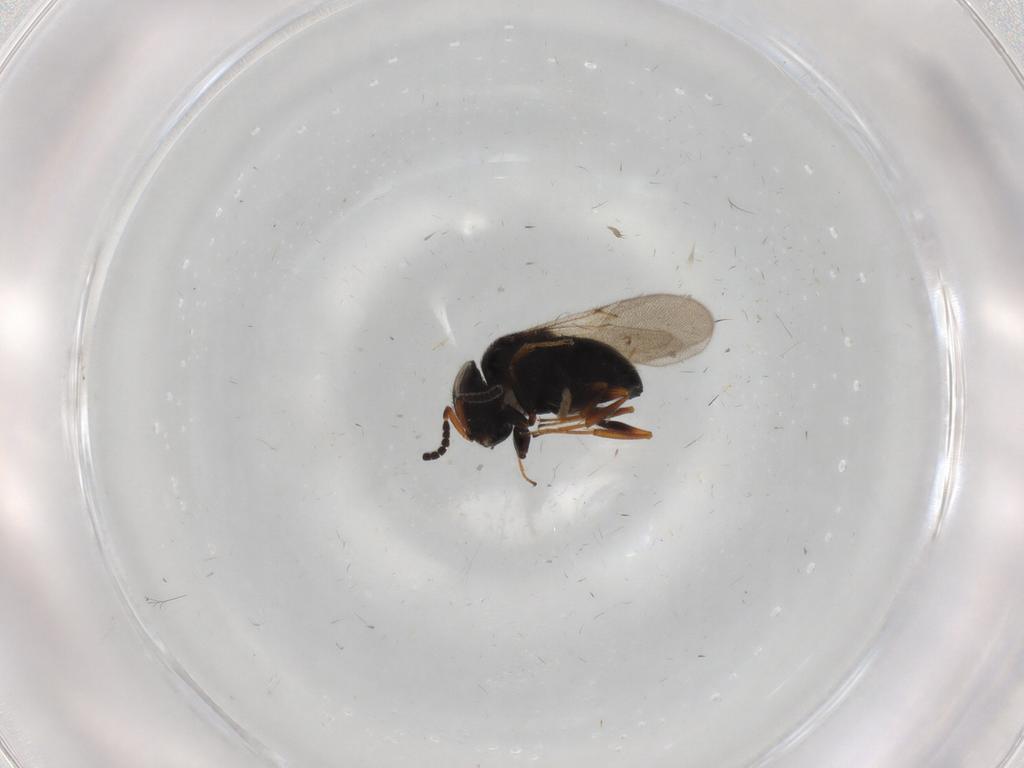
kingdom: Animalia
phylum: Arthropoda
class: Insecta
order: Hymenoptera
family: Scelionidae
